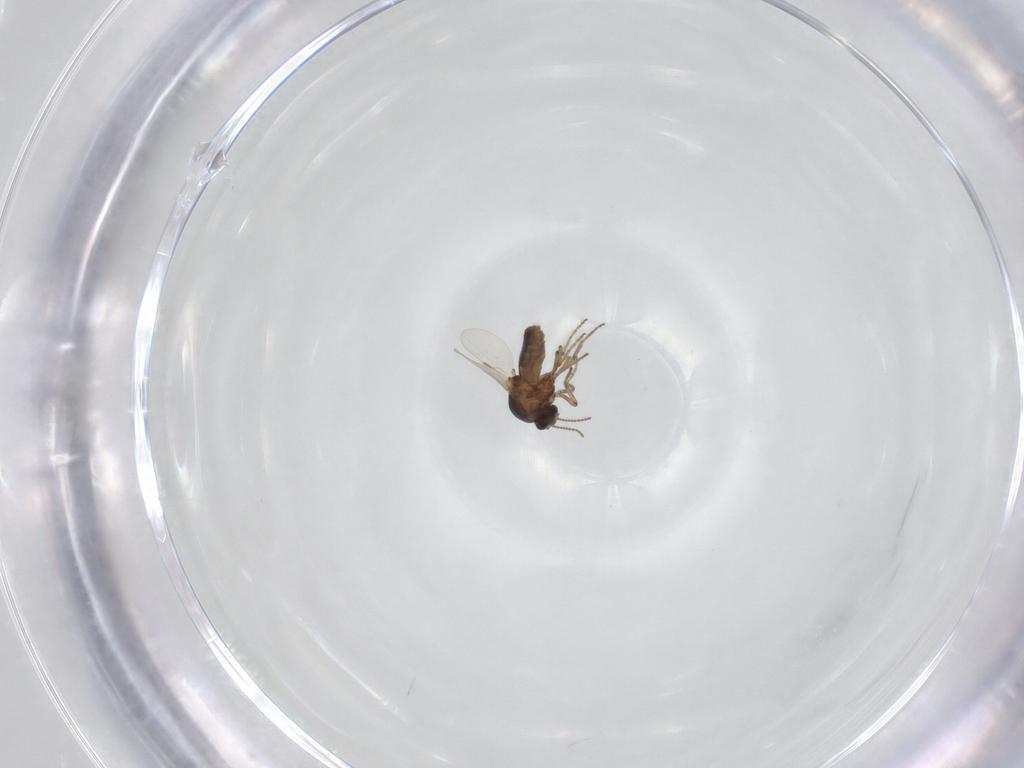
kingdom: Animalia
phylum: Arthropoda
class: Insecta
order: Diptera
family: Ceratopogonidae
